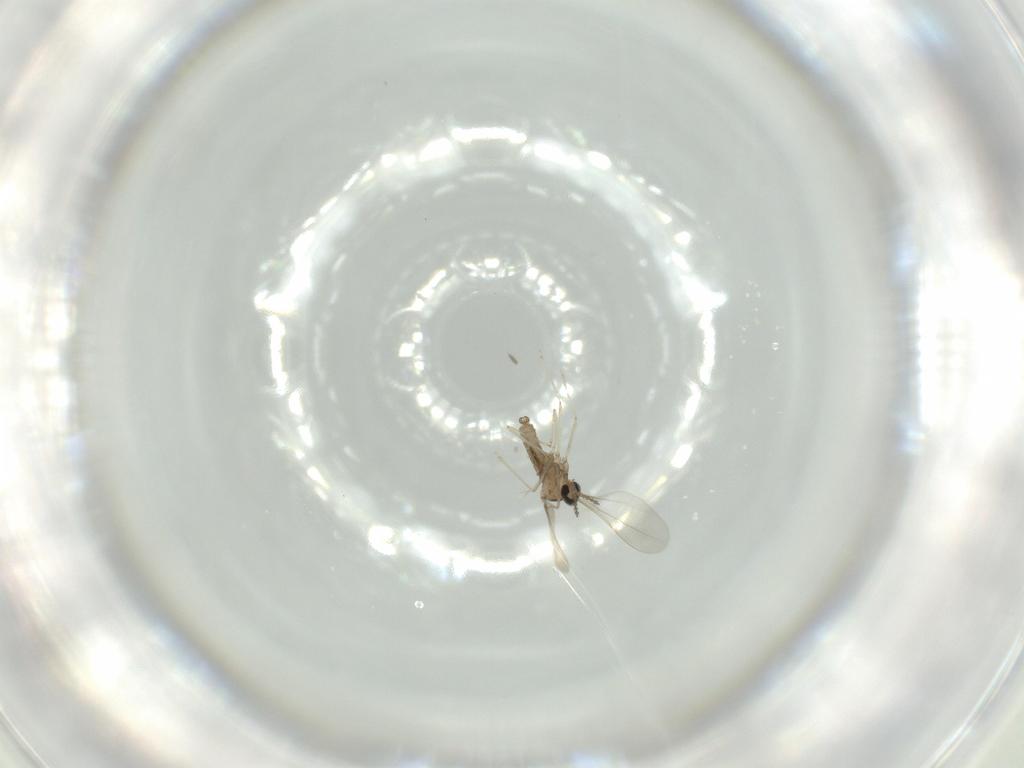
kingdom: Animalia
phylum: Arthropoda
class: Insecta
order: Diptera
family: Cecidomyiidae
